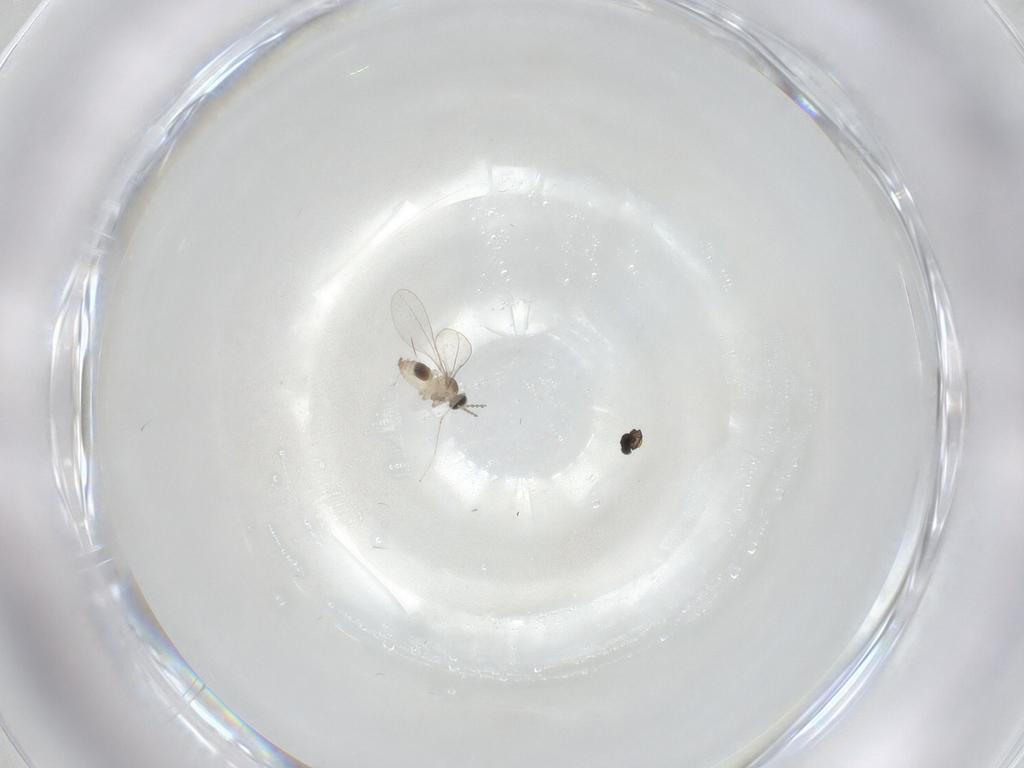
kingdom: Animalia
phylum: Arthropoda
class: Insecta
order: Diptera
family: Cecidomyiidae
